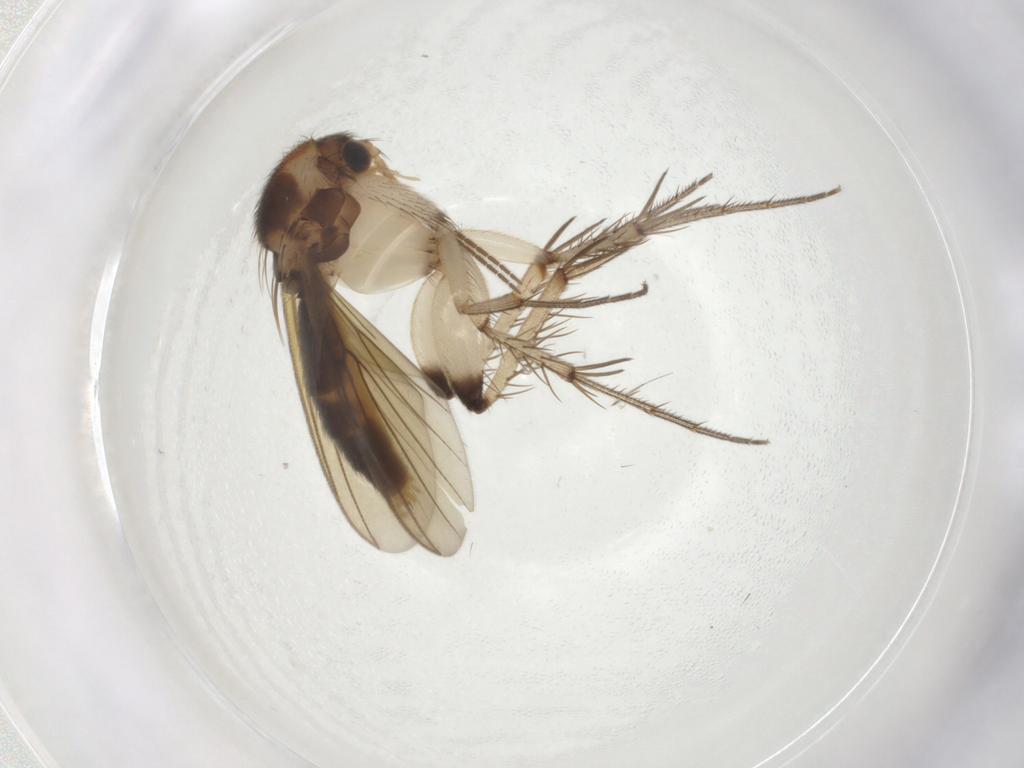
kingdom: Animalia
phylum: Arthropoda
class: Insecta
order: Diptera
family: Mycetophilidae
